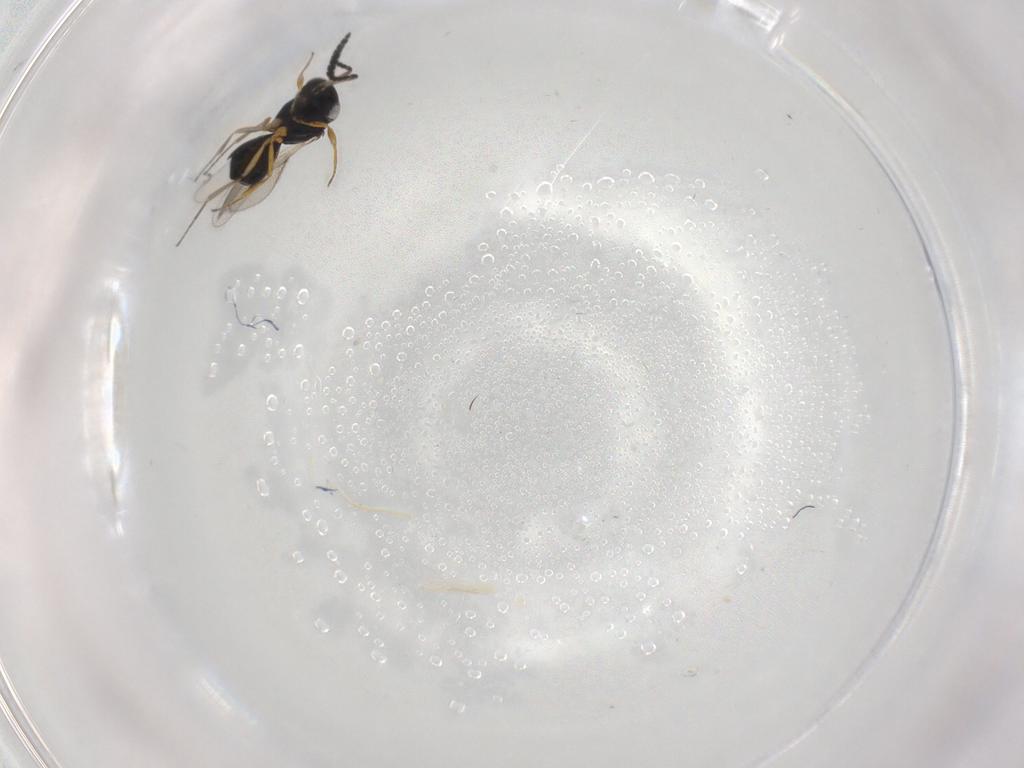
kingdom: Animalia
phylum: Arthropoda
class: Insecta
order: Hymenoptera
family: Scelionidae
